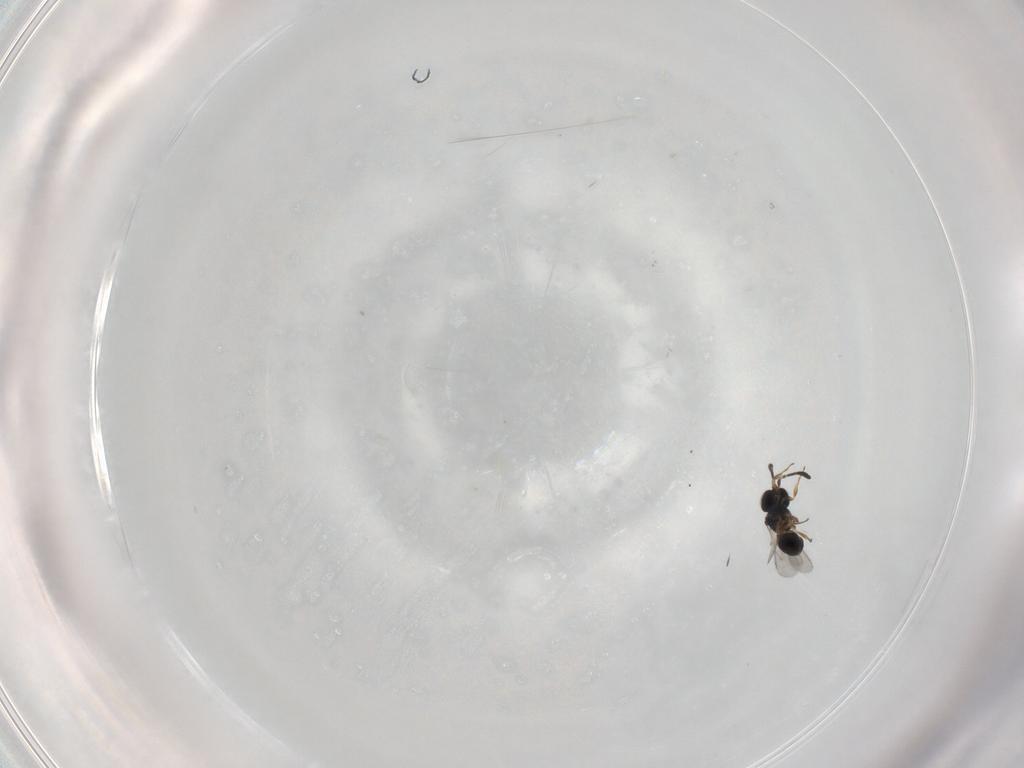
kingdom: Animalia
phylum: Arthropoda
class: Insecta
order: Hymenoptera
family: Scelionidae
